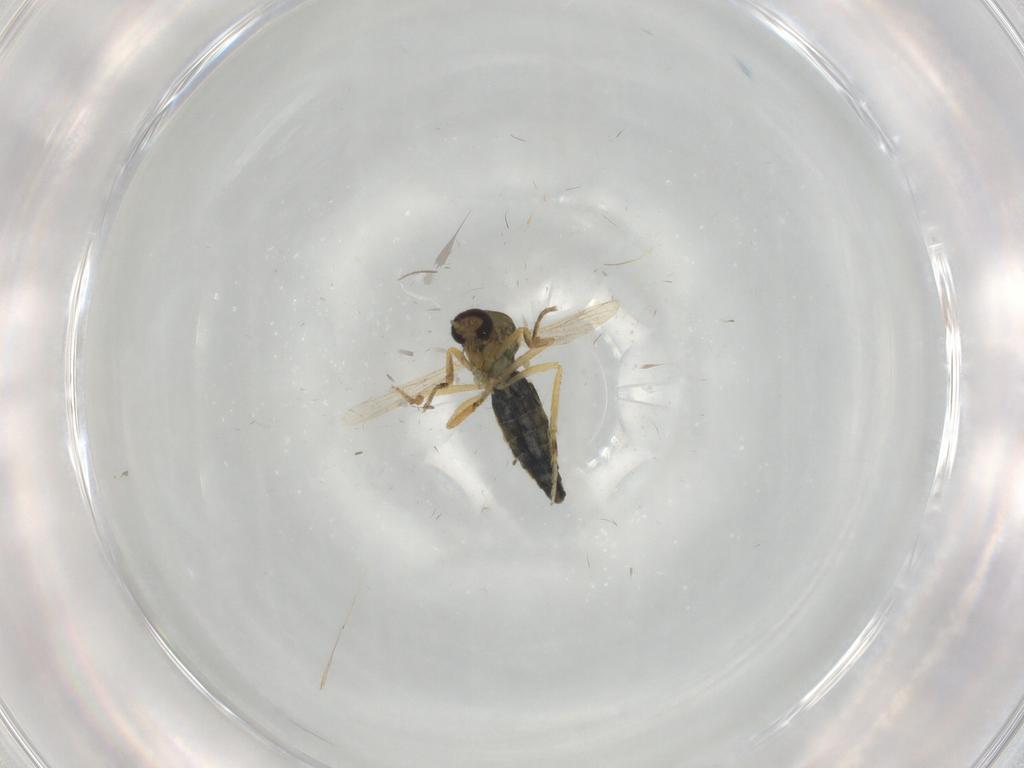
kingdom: Animalia
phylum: Arthropoda
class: Insecta
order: Diptera
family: Ceratopogonidae
